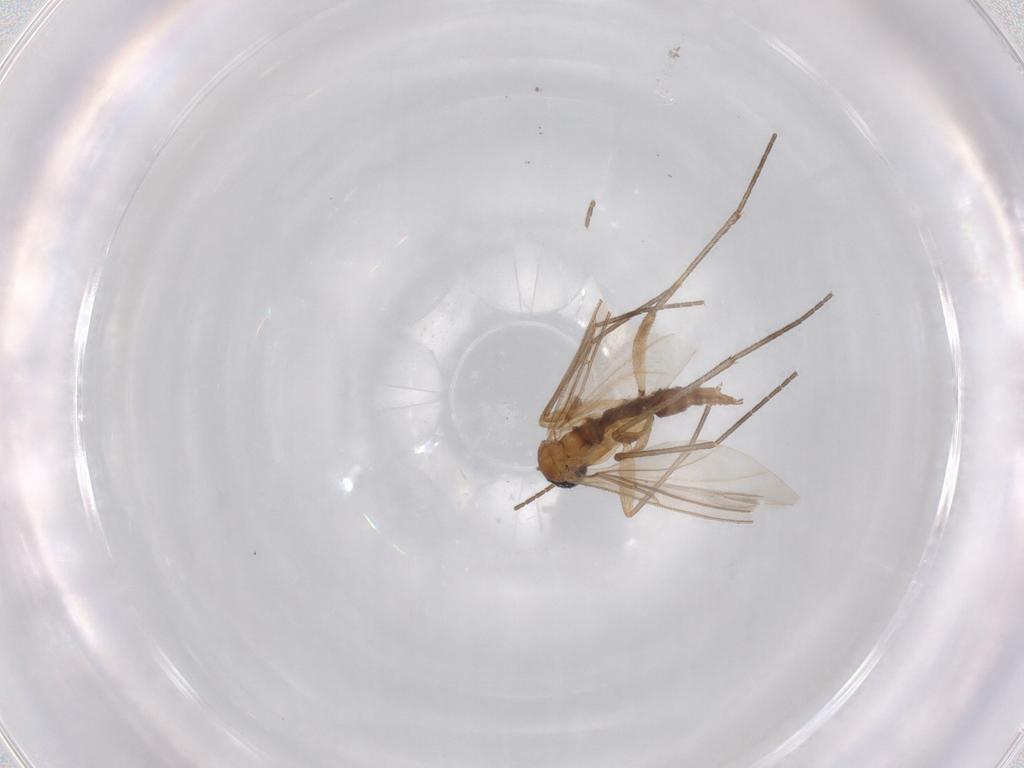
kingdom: Animalia
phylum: Arthropoda
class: Insecta
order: Diptera
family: Sciaridae
